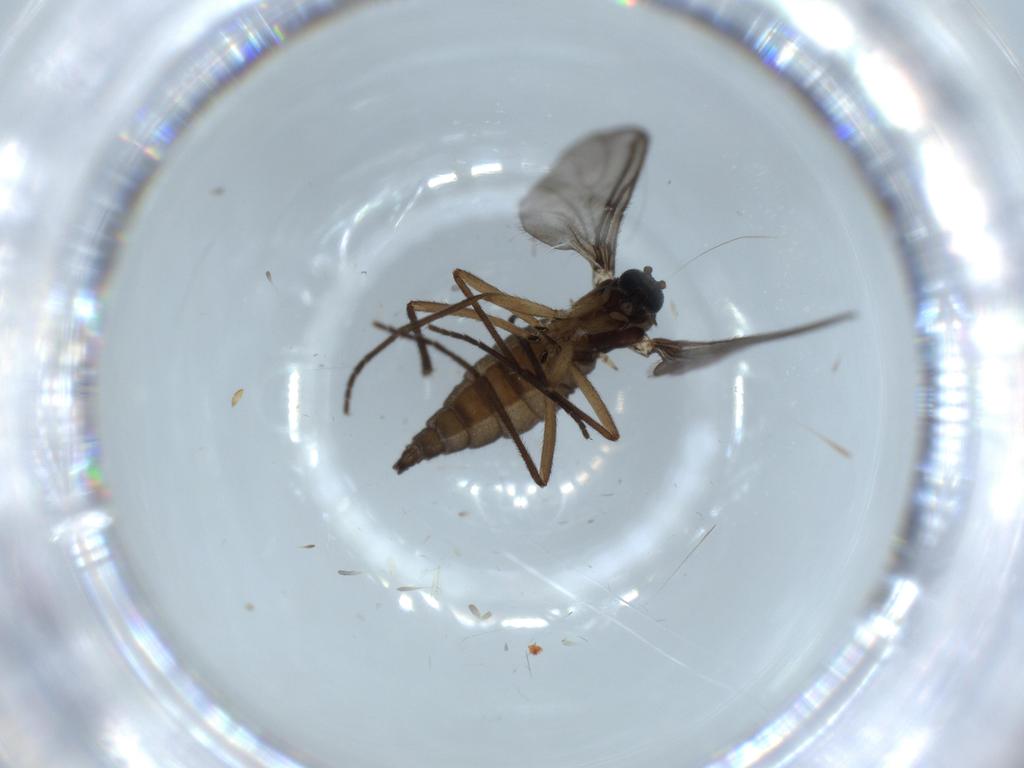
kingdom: Animalia
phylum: Arthropoda
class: Insecta
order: Diptera
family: Sciaridae
